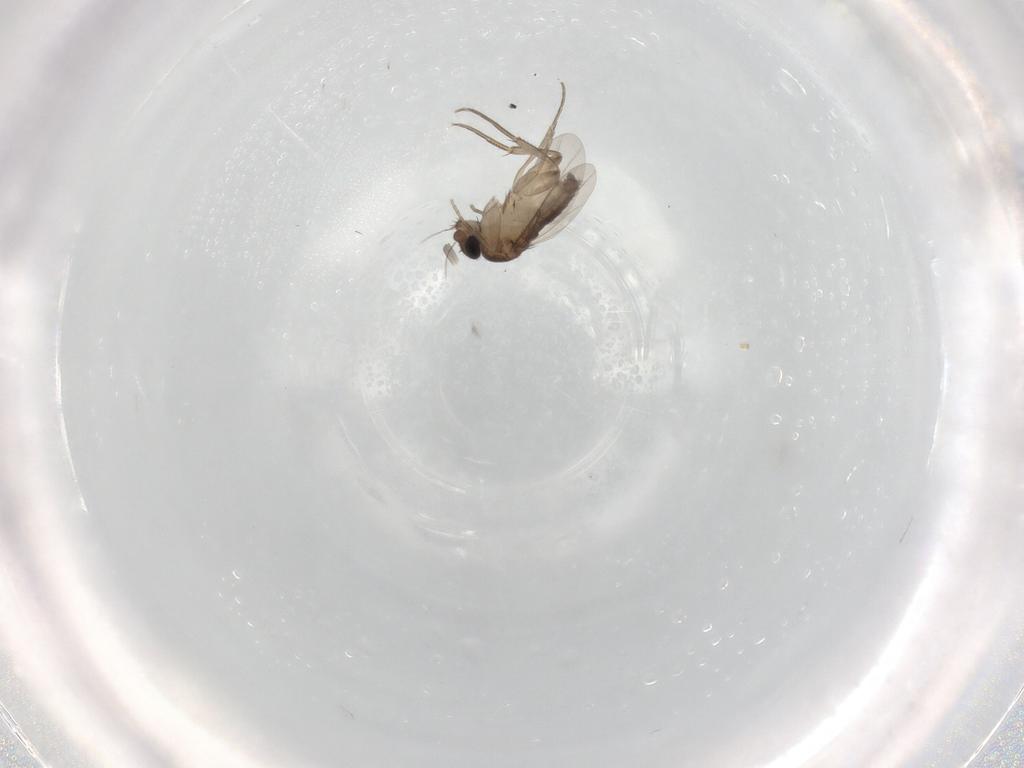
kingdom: Animalia
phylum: Arthropoda
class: Insecta
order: Diptera
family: Phoridae
